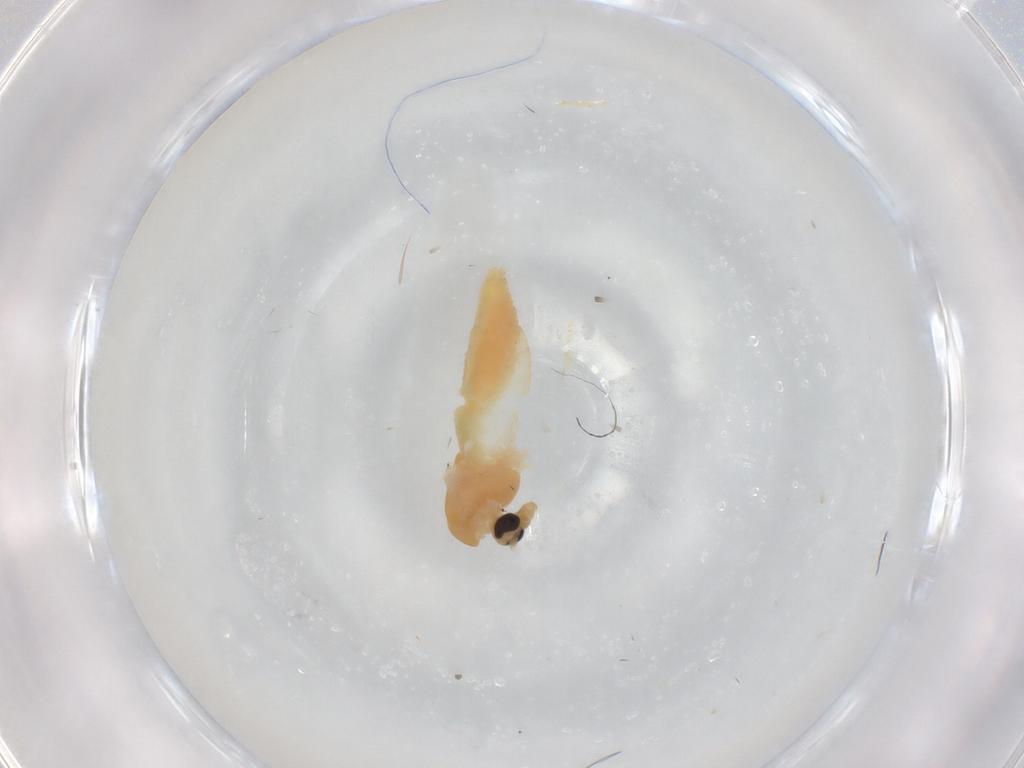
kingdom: Animalia
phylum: Arthropoda
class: Insecta
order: Diptera
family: Chironomidae
